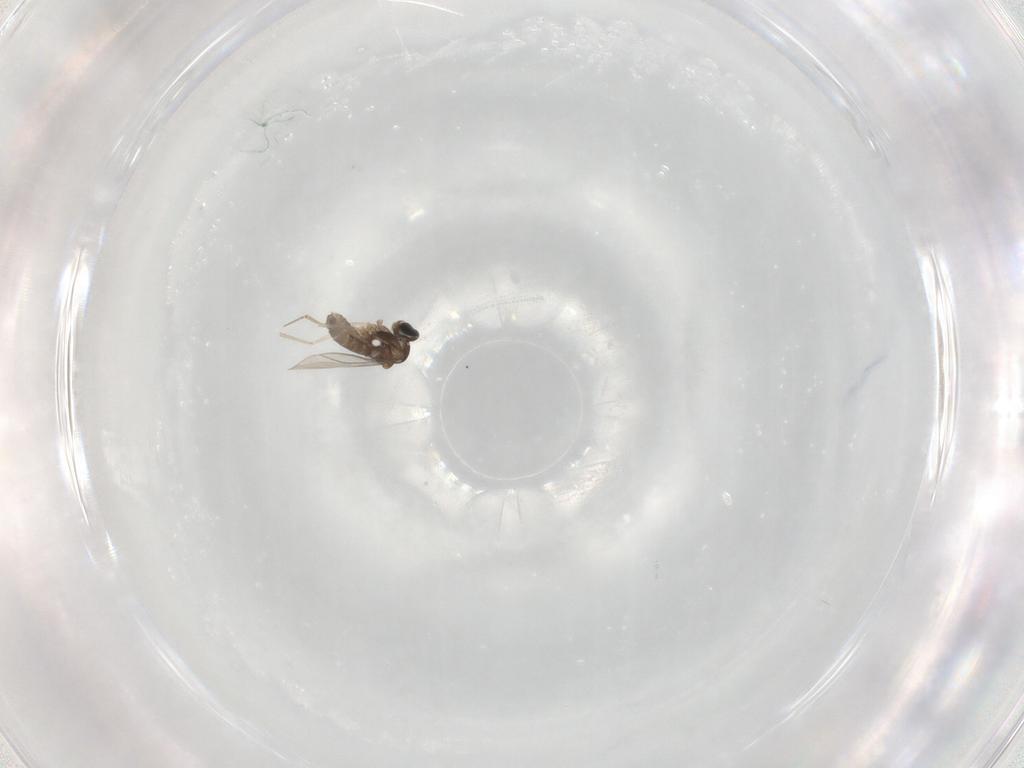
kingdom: Animalia
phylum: Arthropoda
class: Insecta
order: Diptera
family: Cecidomyiidae
